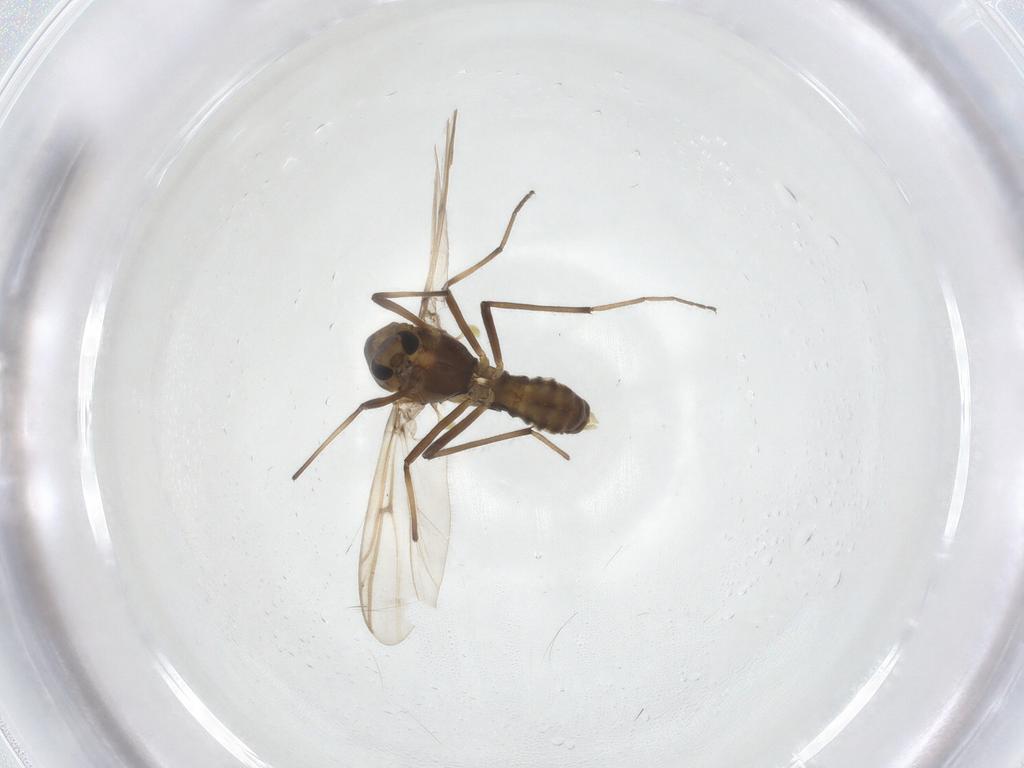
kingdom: Animalia
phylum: Arthropoda
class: Insecta
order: Diptera
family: Chironomidae
